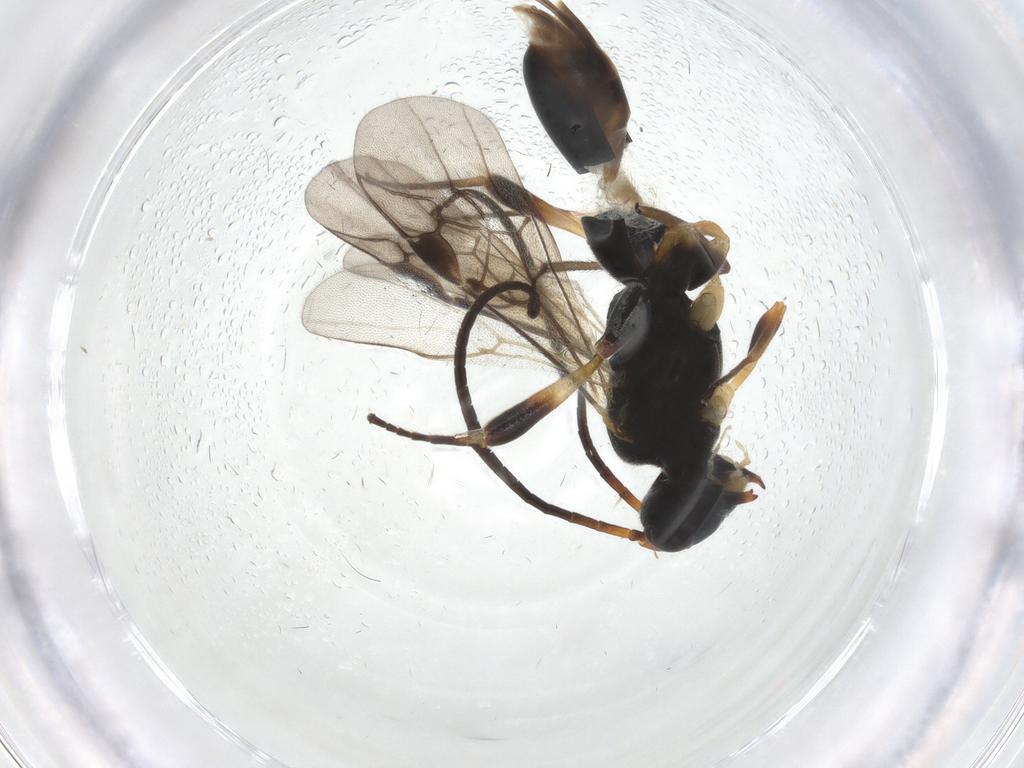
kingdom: Animalia
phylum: Arthropoda
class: Insecta
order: Hymenoptera
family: Braconidae
